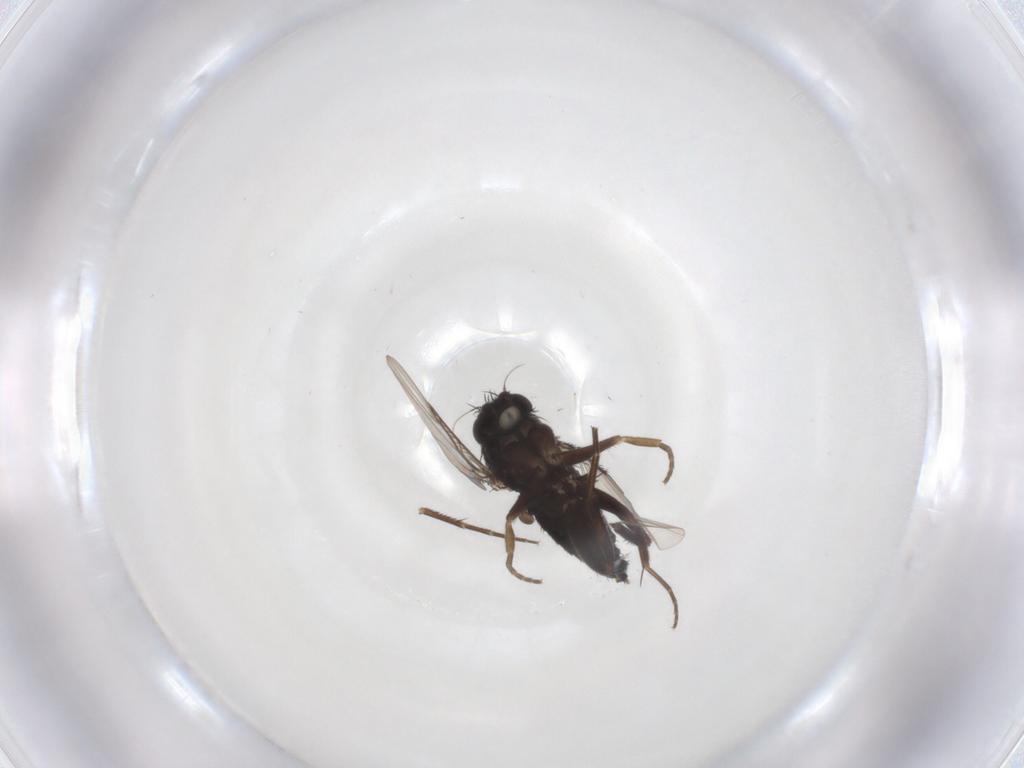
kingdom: Animalia
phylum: Arthropoda
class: Insecta
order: Diptera
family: Phoridae
